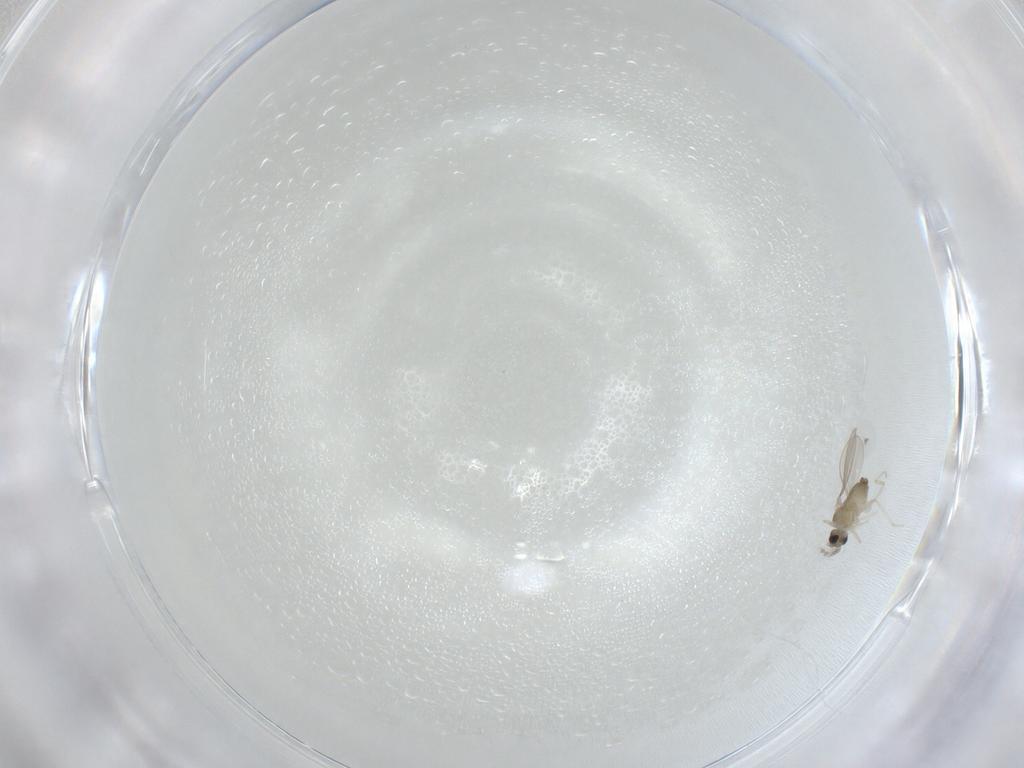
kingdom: Animalia
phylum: Arthropoda
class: Insecta
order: Diptera
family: Cecidomyiidae
